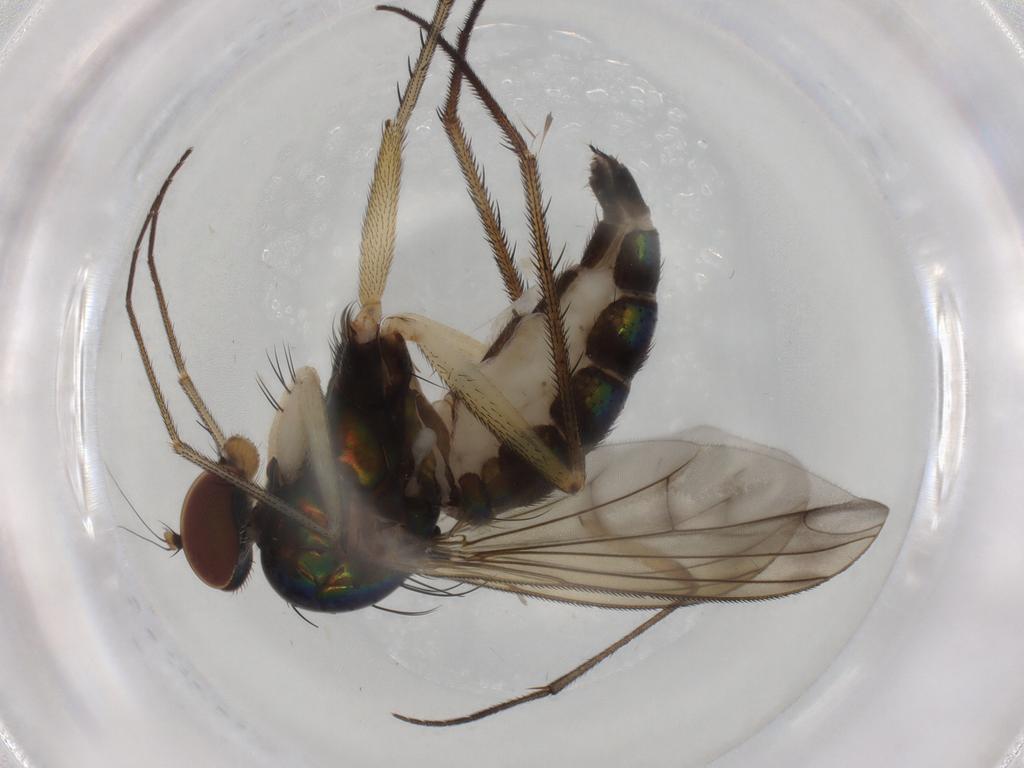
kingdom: Animalia
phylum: Arthropoda
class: Insecta
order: Diptera
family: Dolichopodidae
